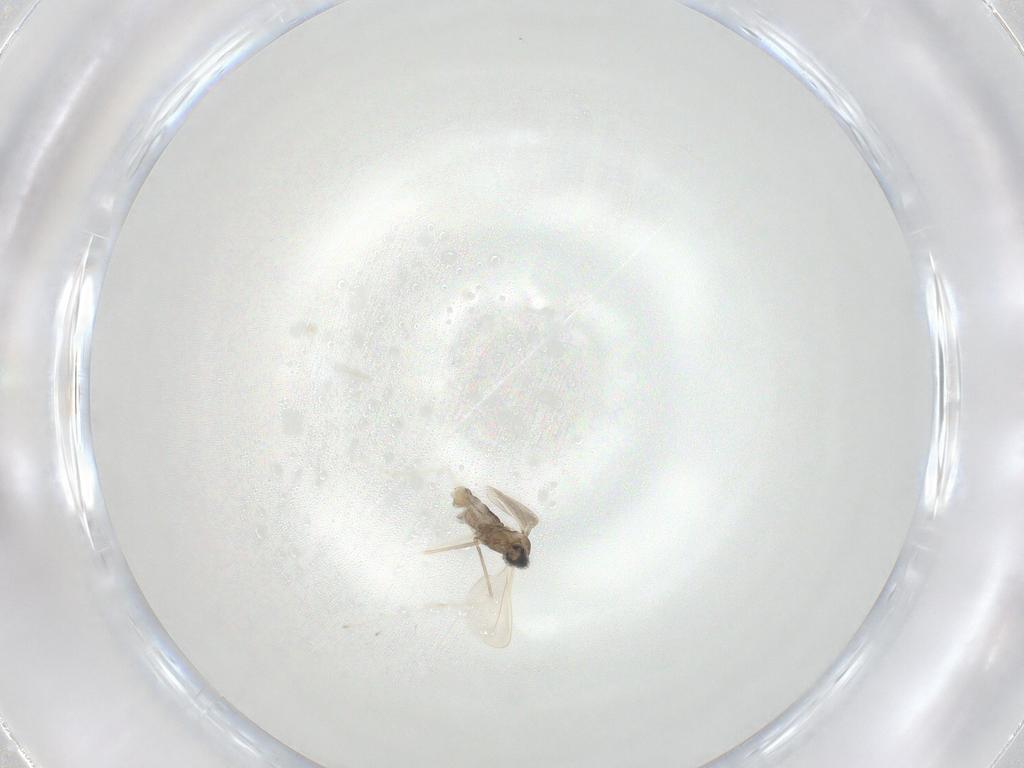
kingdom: Animalia
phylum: Arthropoda
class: Insecta
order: Diptera
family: Cecidomyiidae
